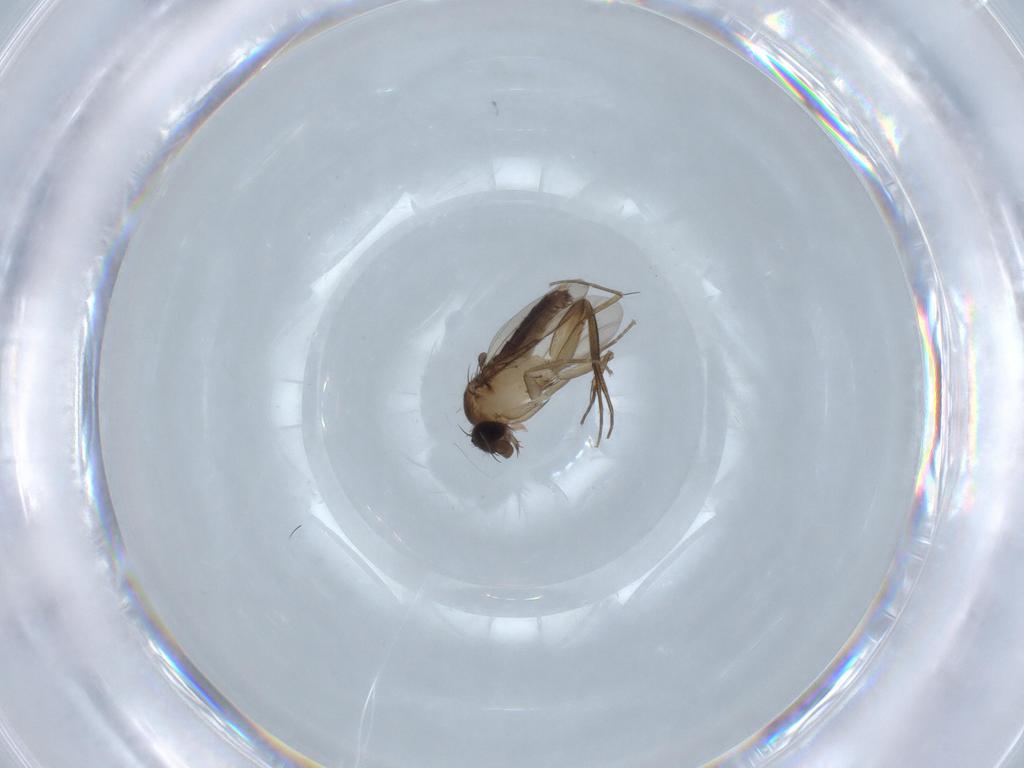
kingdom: Animalia
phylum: Arthropoda
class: Insecta
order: Diptera
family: Phoridae
